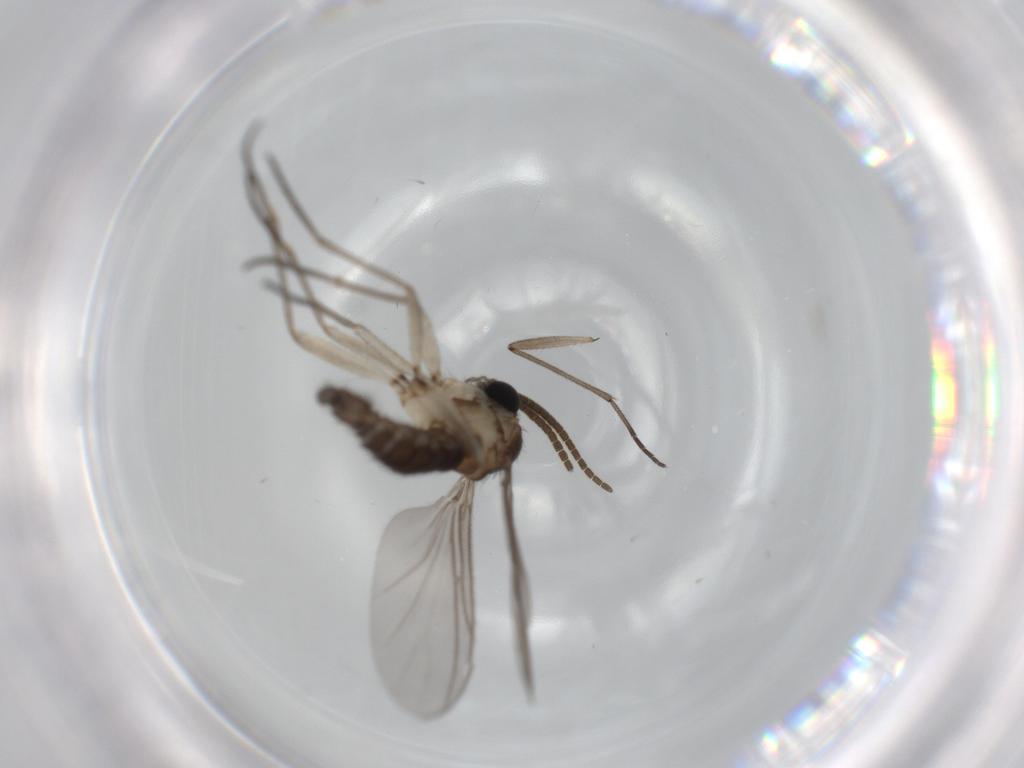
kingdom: Animalia
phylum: Arthropoda
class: Insecta
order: Diptera
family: Sciaridae
